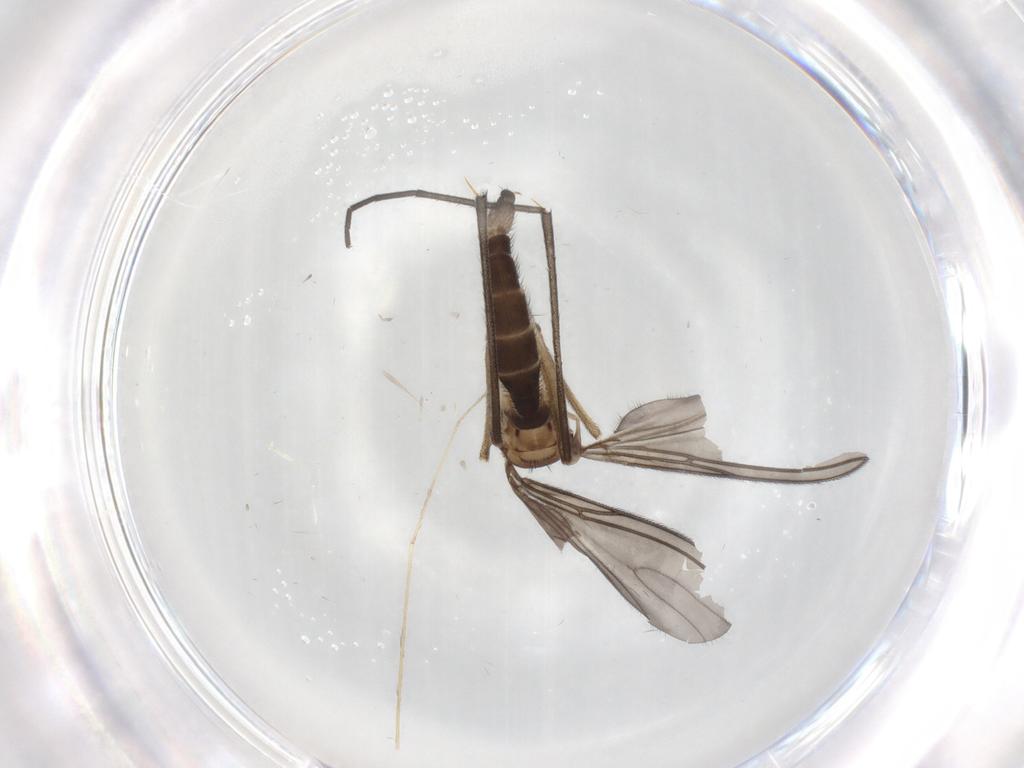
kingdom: Animalia
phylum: Arthropoda
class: Insecta
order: Diptera
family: Sciaridae
